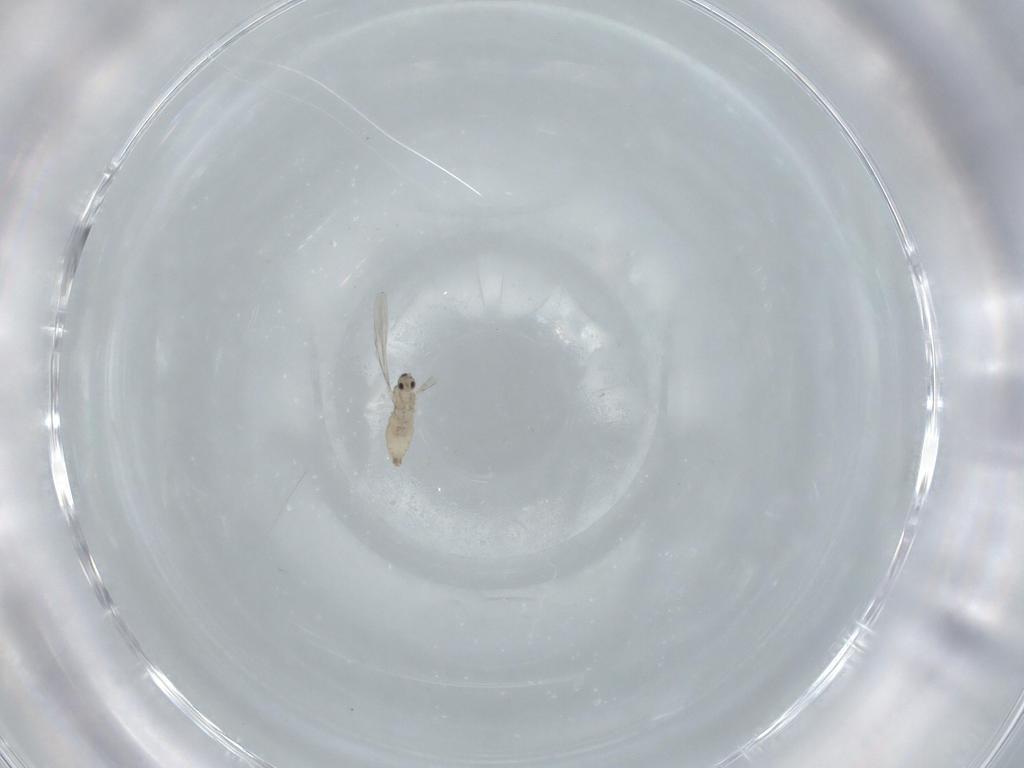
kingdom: Animalia
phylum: Arthropoda
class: Insecta
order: Diptera
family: Cecidomyiidae
